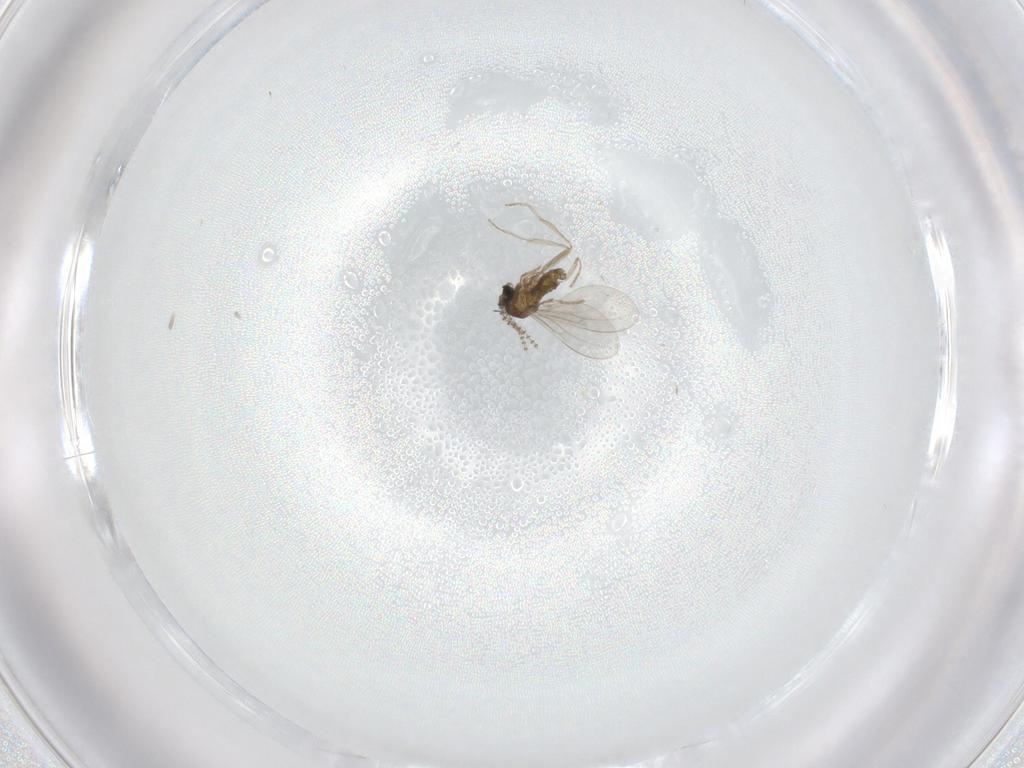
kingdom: Animalia
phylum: Arthropoda
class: Insecta
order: Diptera
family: Cecidomyiidae
